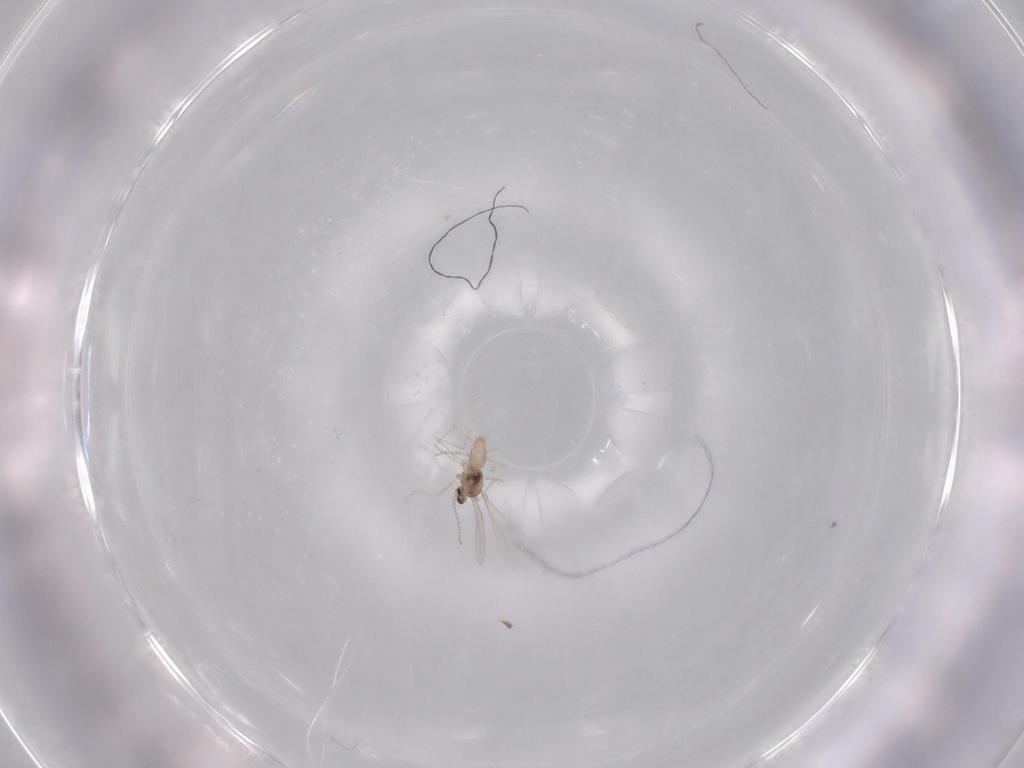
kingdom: Animalia
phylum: Arthropoda
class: Insecta
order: Diptera
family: Cecidomyiidae
